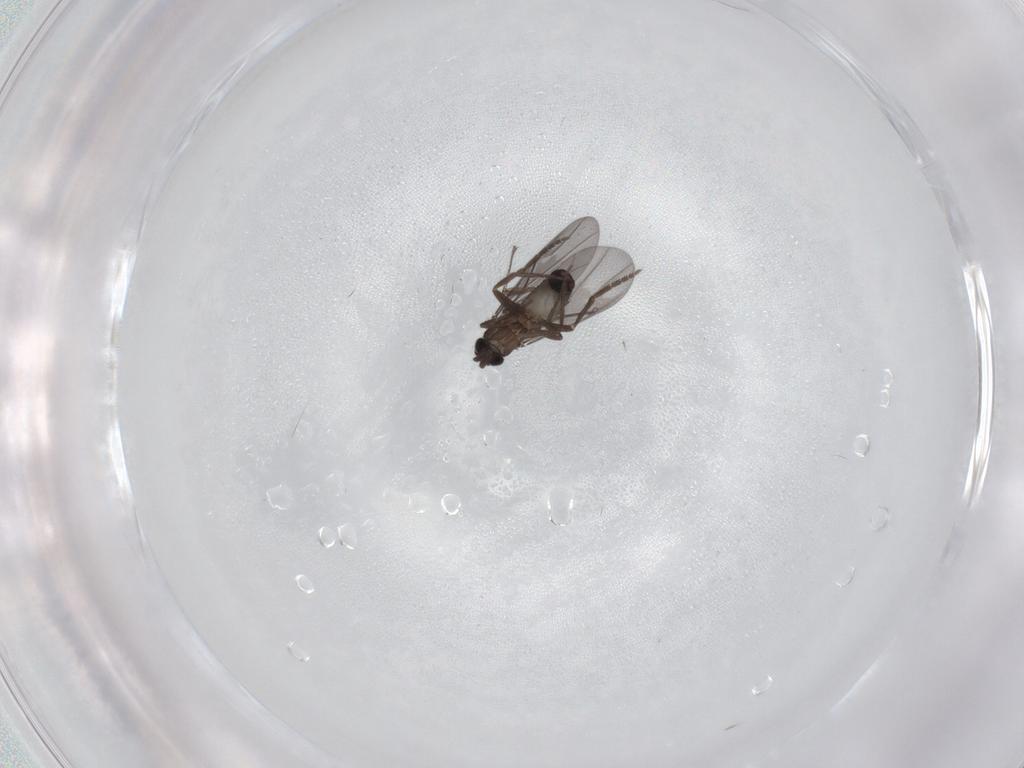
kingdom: Animalia
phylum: Arthropoda
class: Insecta
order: Diptera
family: Phoridae
